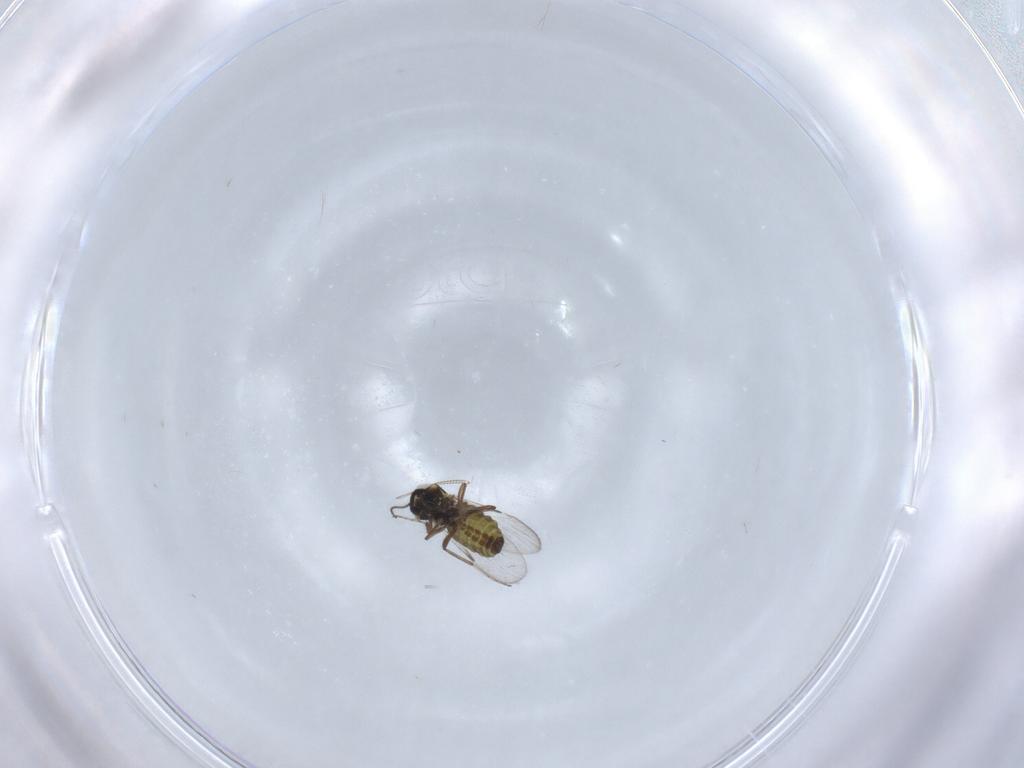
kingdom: Animalia
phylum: Arthropoda
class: Insecta
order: Diptera
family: Ceratopogonidae
